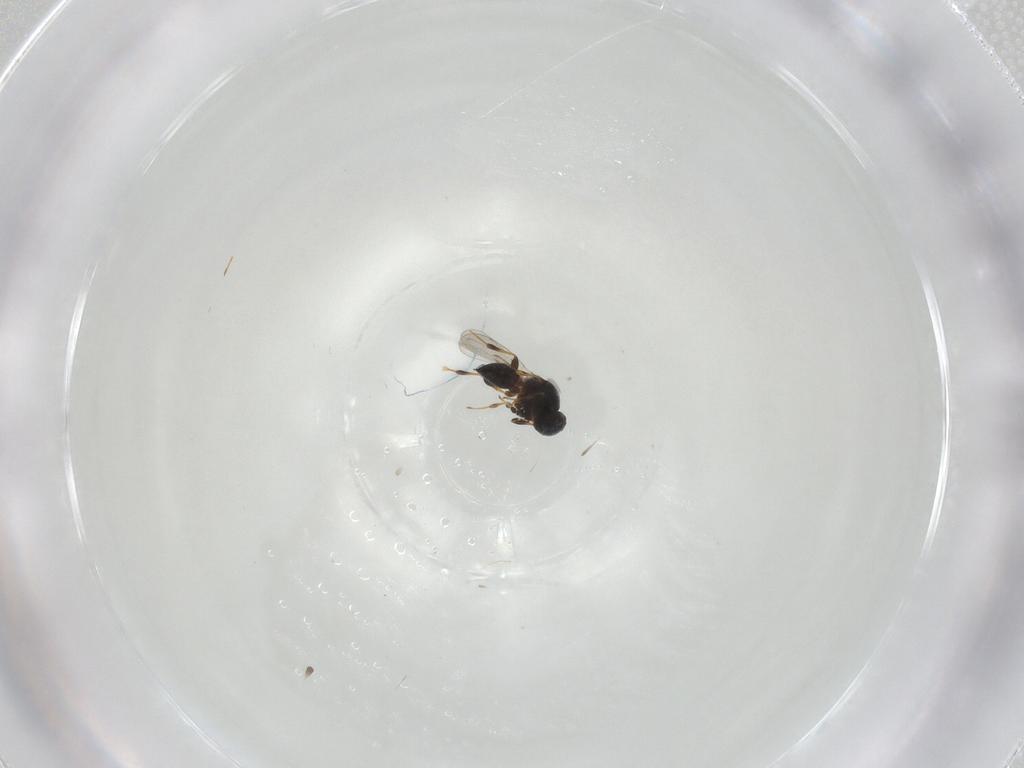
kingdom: Animalia
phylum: Arthropoda
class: Insecta
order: Hymenoptera
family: Platygastridae
